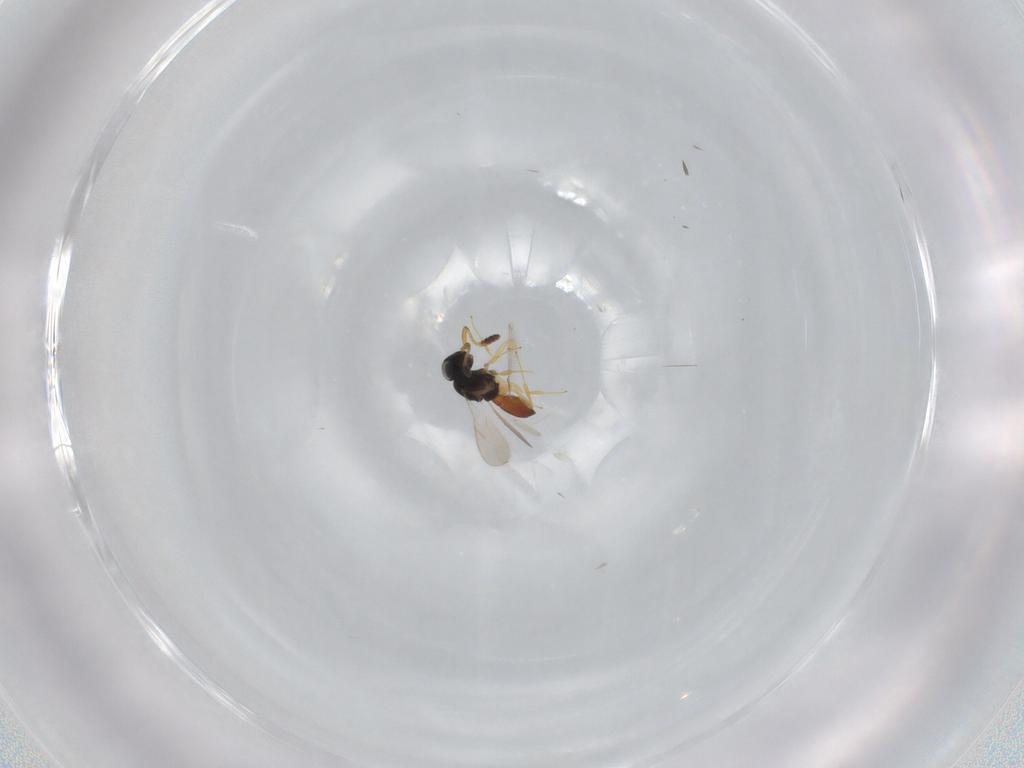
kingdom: Animalia
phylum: Arthropoda
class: Insecta
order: Hymenoptera
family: Scelionidae
